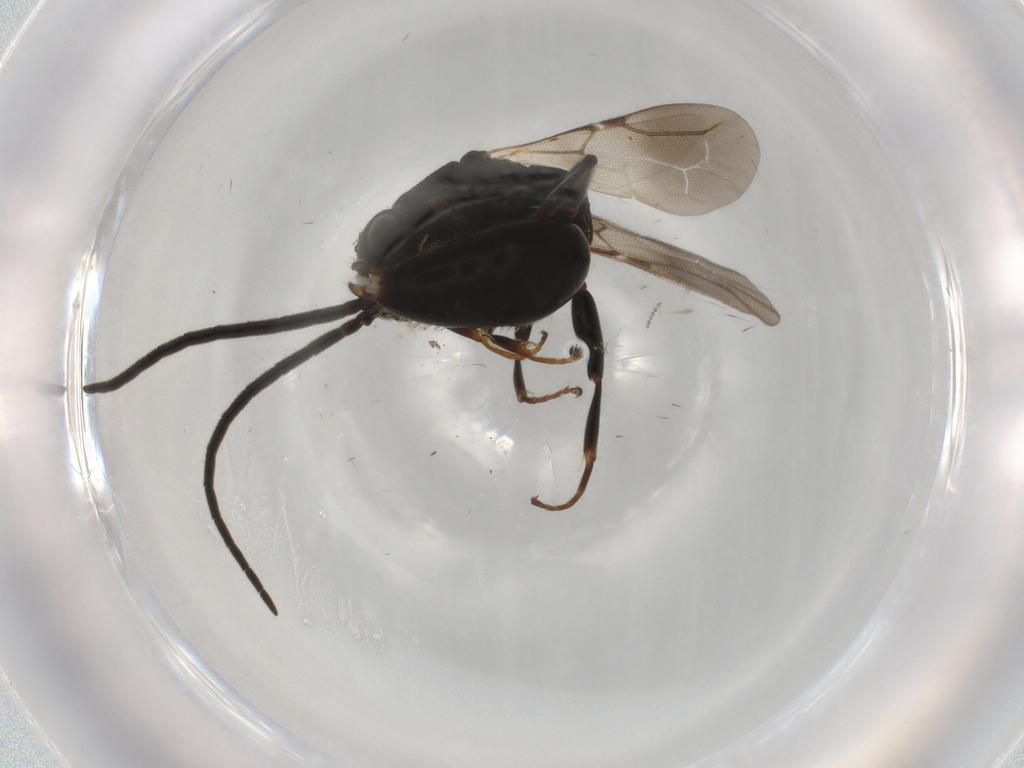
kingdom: Animalia
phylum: Arthropoda
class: Insecta
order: Hymenoptera
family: Bethylidae
